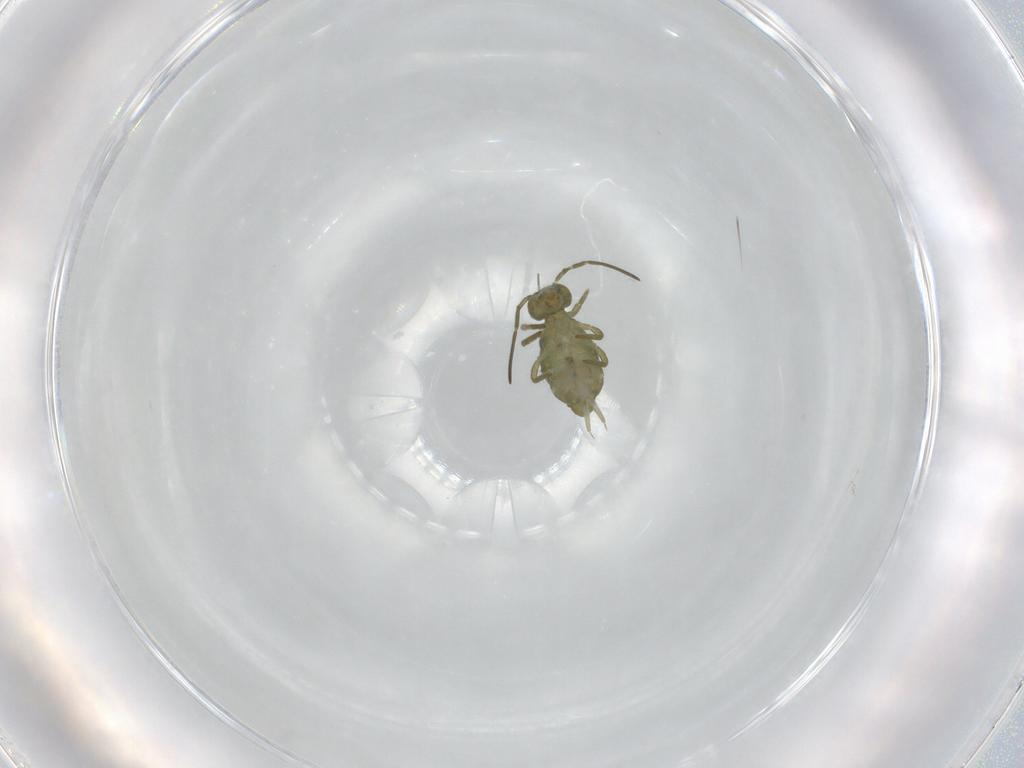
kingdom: Animalia
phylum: Arthropoda
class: Collembola
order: Symphypleona
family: Sminthuridae
